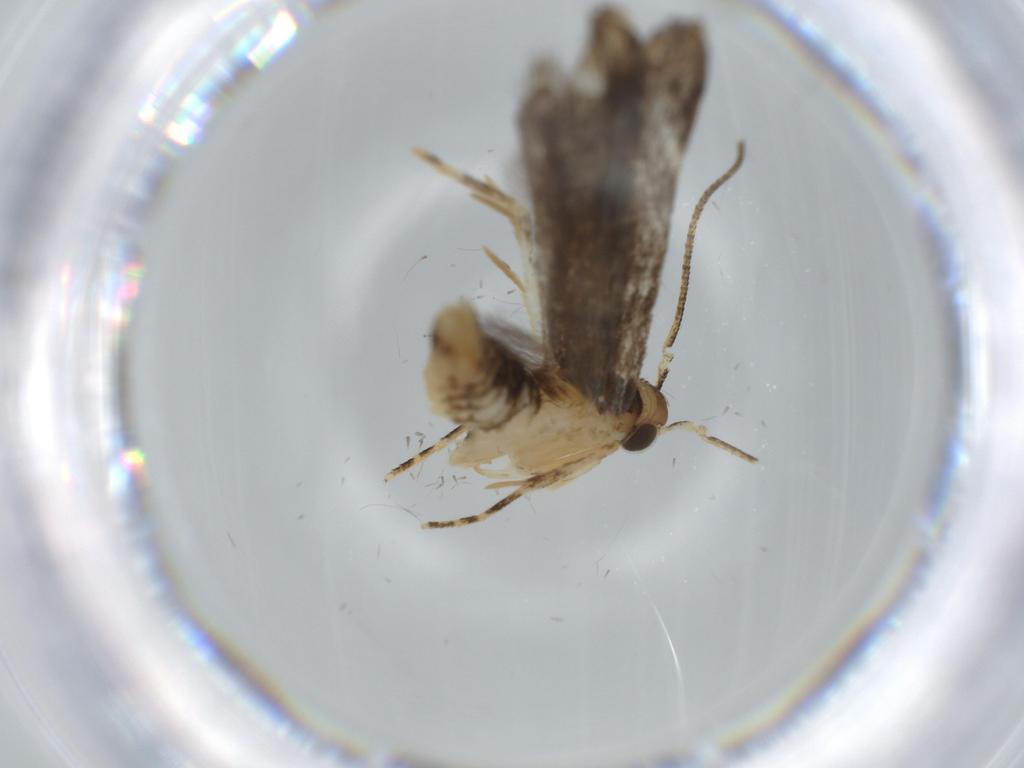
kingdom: Animalia
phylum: Arthropoda
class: Insecta
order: Lepidoptera
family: Coleophoridae
